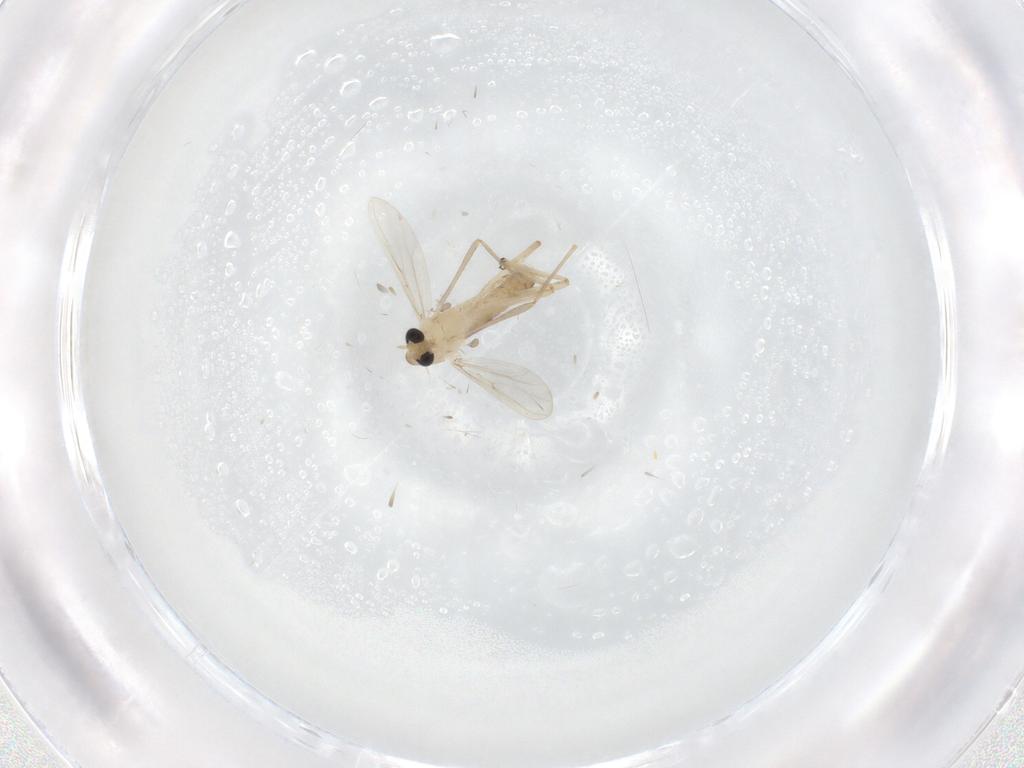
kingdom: Animalia
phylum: Arthropoda
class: Insecta
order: Diptera
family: Chironomidae
